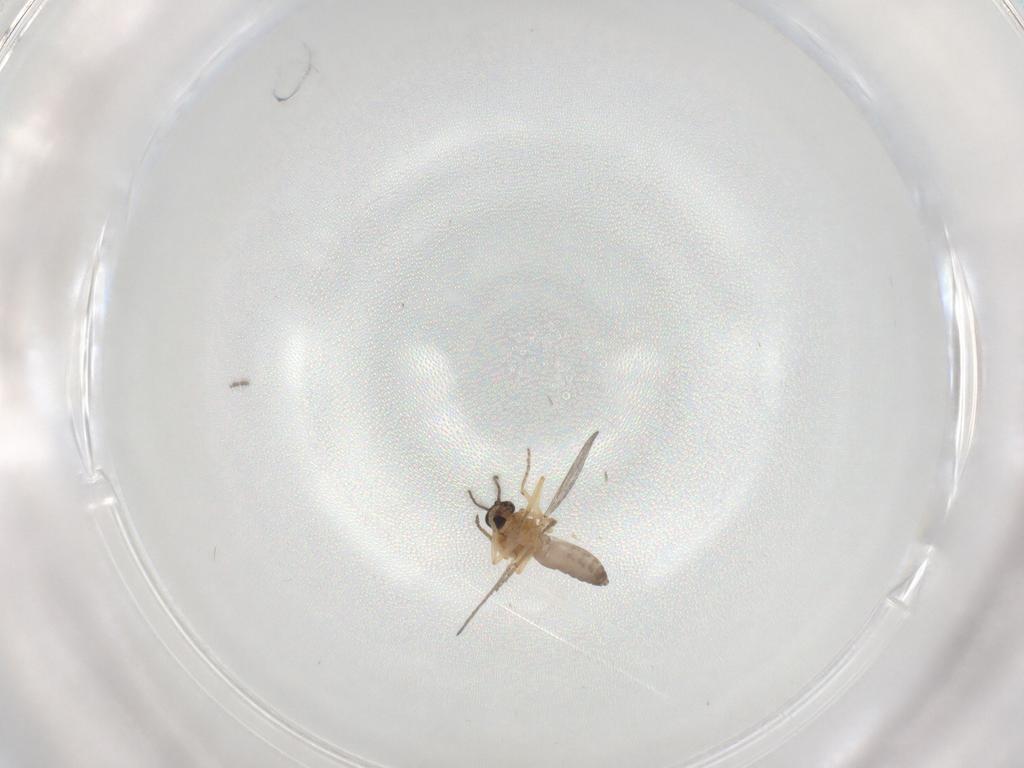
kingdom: Animalia
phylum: Arthropoda
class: Insecta
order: Diptera
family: Ceratopogonidae
